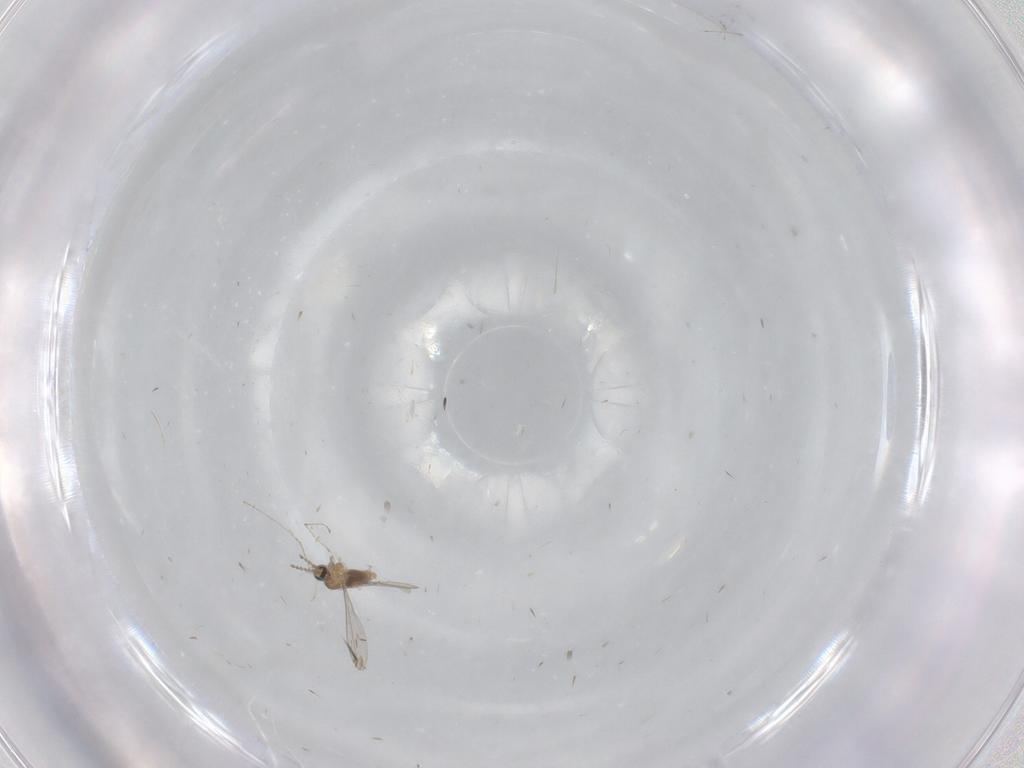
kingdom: Animalia
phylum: Arthropoda
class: Insecta
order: Diptera
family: Cecidomyiidae
